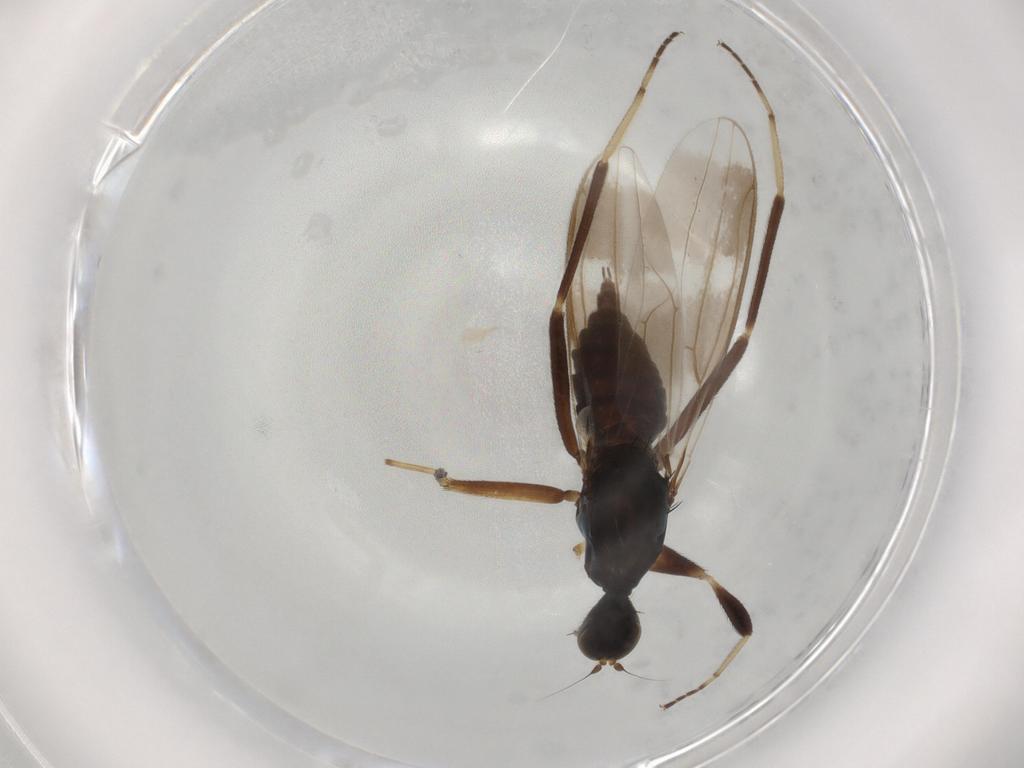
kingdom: Animalia
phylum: Arthropoda
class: Insecta
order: Diptera
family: Hybotidae
